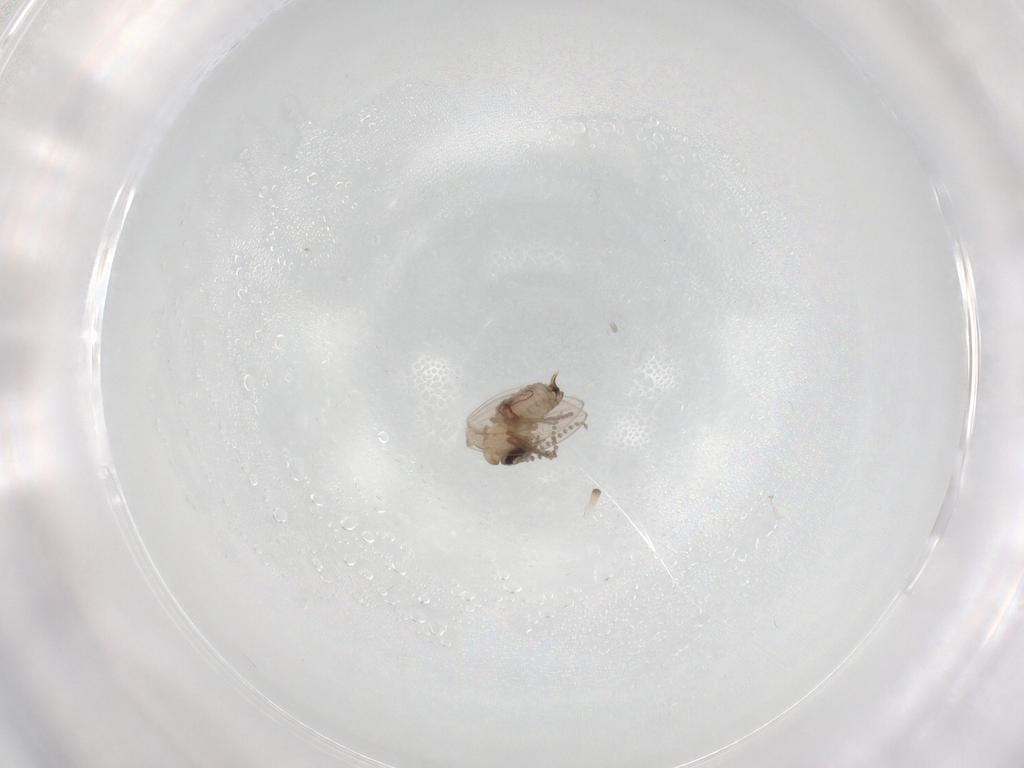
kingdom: Animalia
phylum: Arthropoda
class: Insecta
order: Diptera
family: Psychodidae
